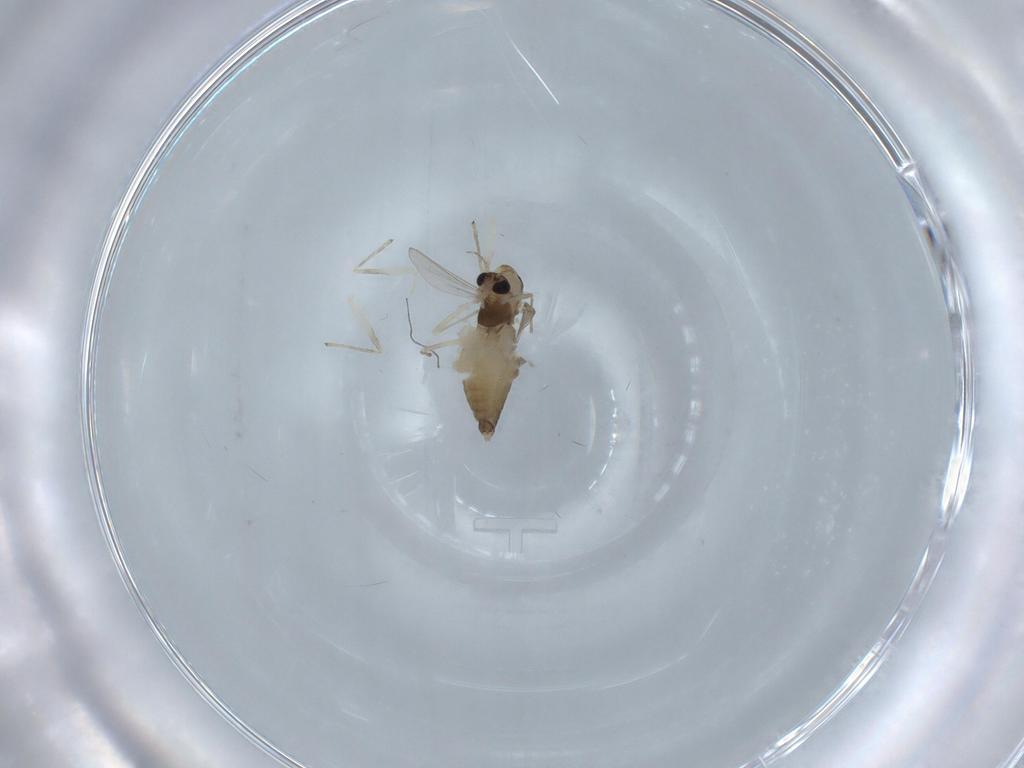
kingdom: Animalia
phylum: Arthropoda
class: Insecta
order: Diptera
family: Chironomidae
